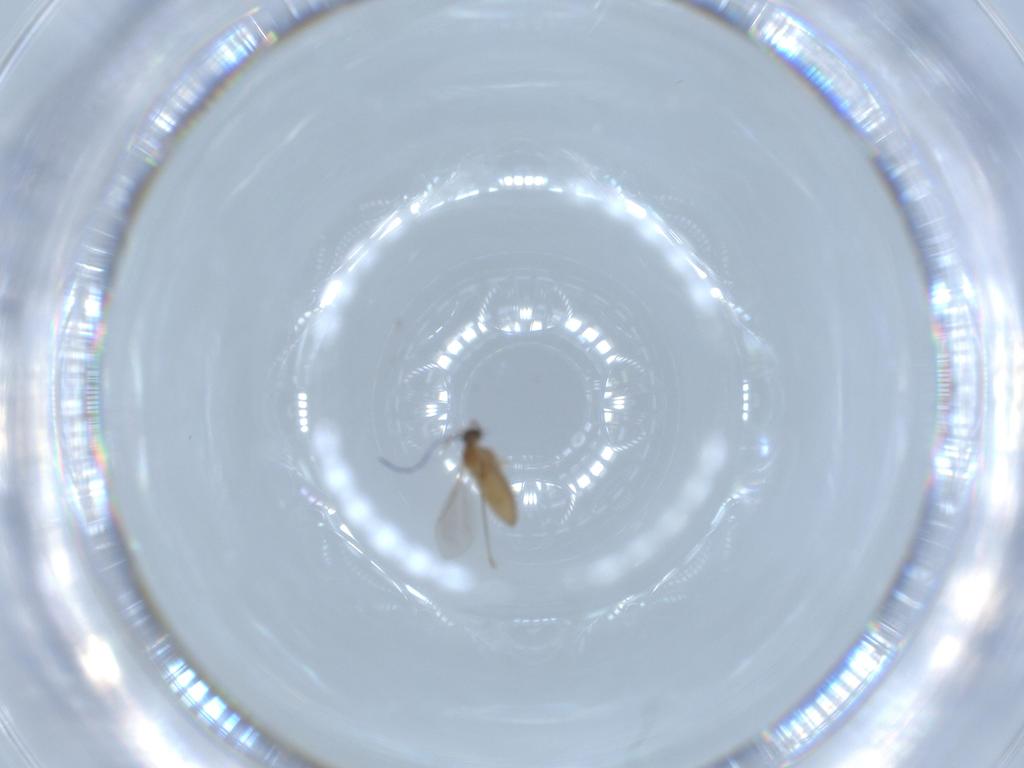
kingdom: Animalia
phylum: Arthropoda
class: Insecta
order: Diptera
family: Cecidomyiidae
